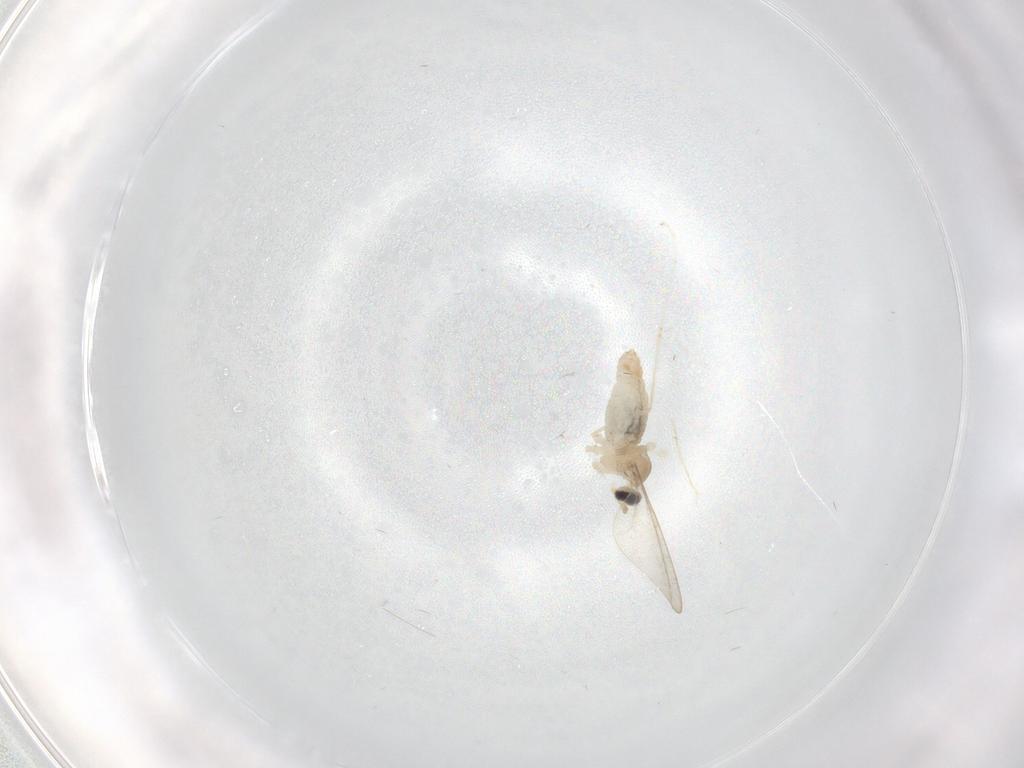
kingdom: Animalia
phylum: Arthropoda
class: Insecta
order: Diptera
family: Cecidomyiidae
